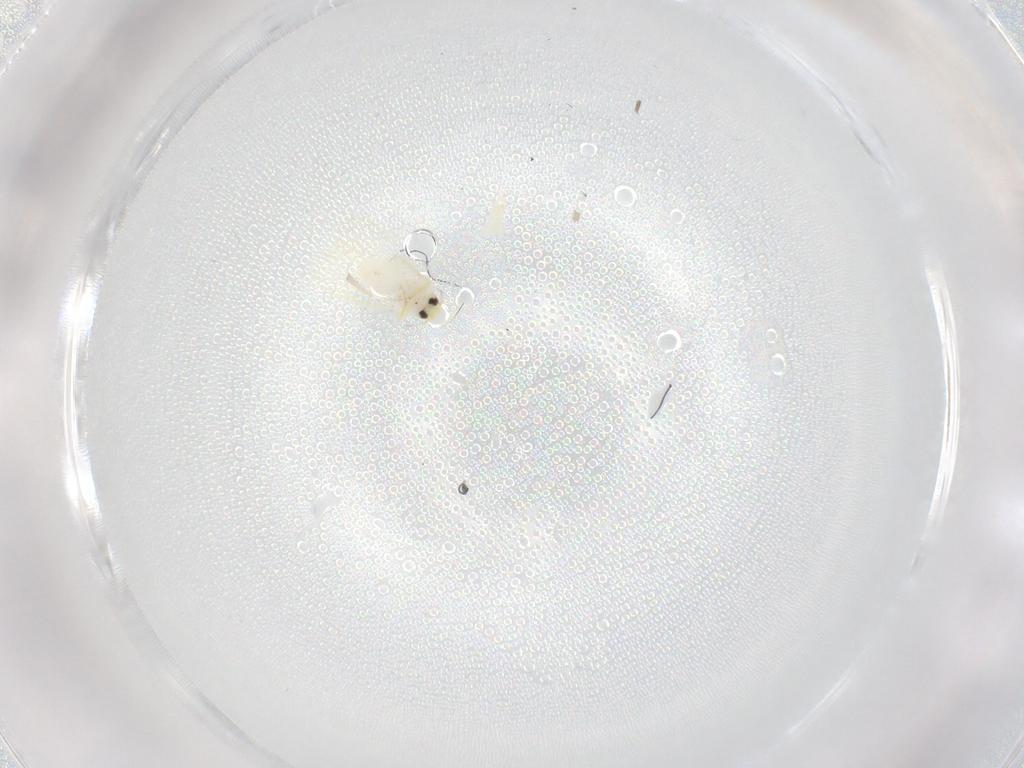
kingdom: Animalia
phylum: Arthropoda
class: Insecta
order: Hemiptera
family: Aleyrodidae
